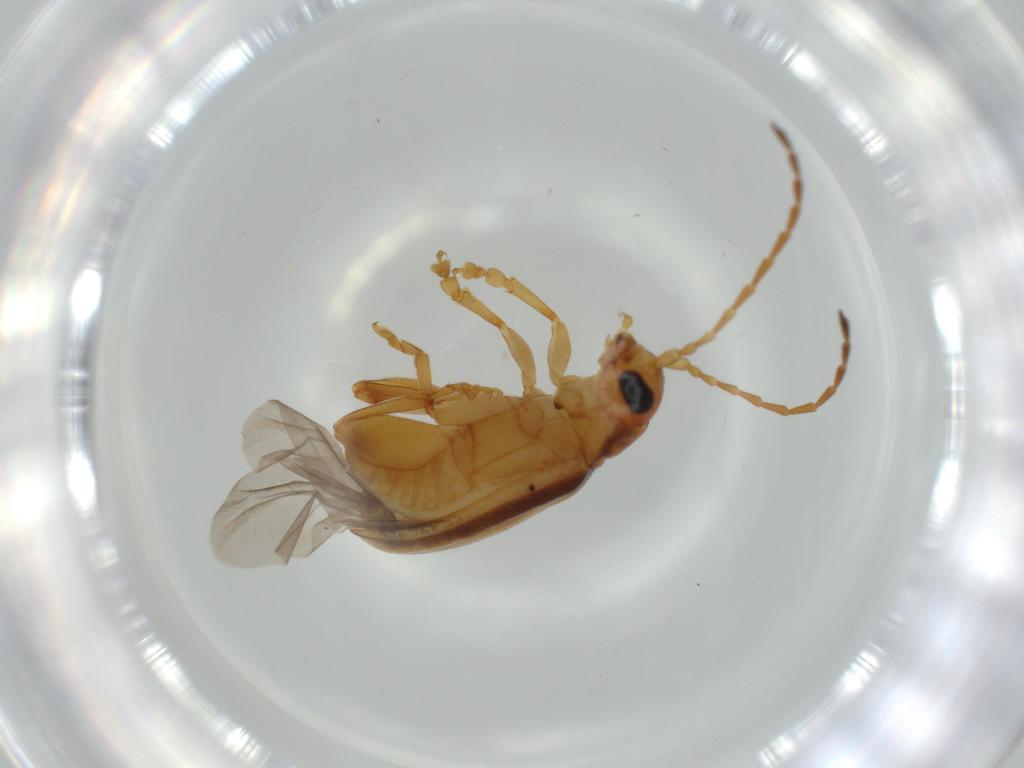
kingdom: Animalia
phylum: Arthropoda
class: Insecta
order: Coleoptera
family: Chrysomelidae
